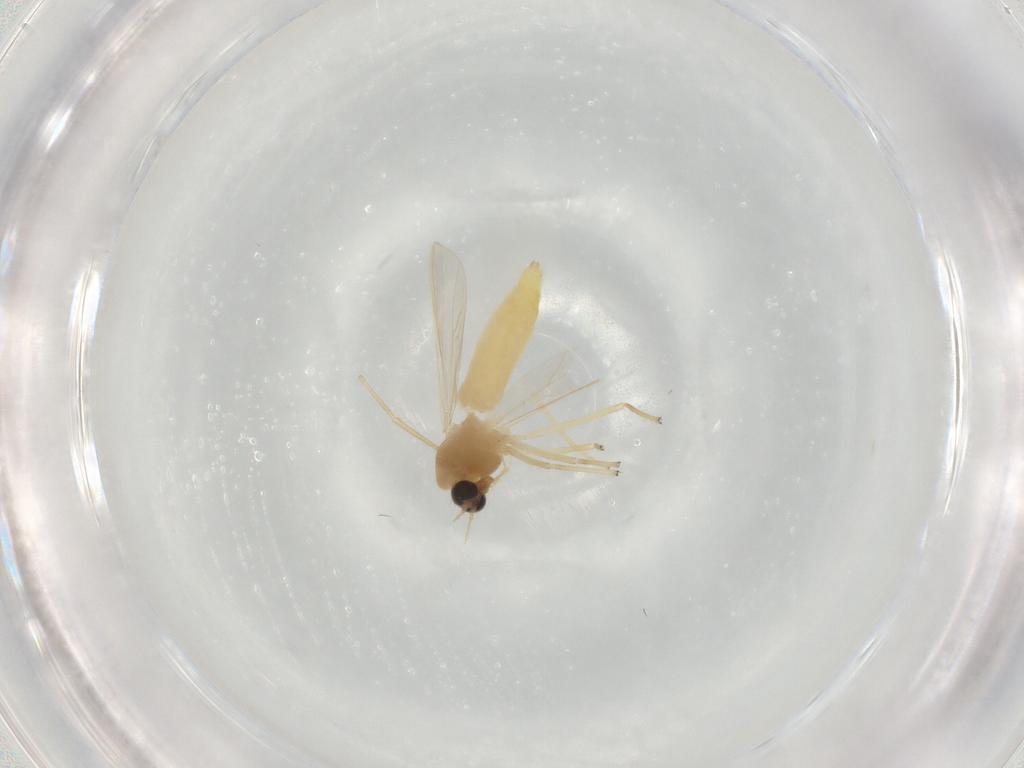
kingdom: Animalia
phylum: Arthropoda
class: Insecta
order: Diptera
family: Chironomidae
